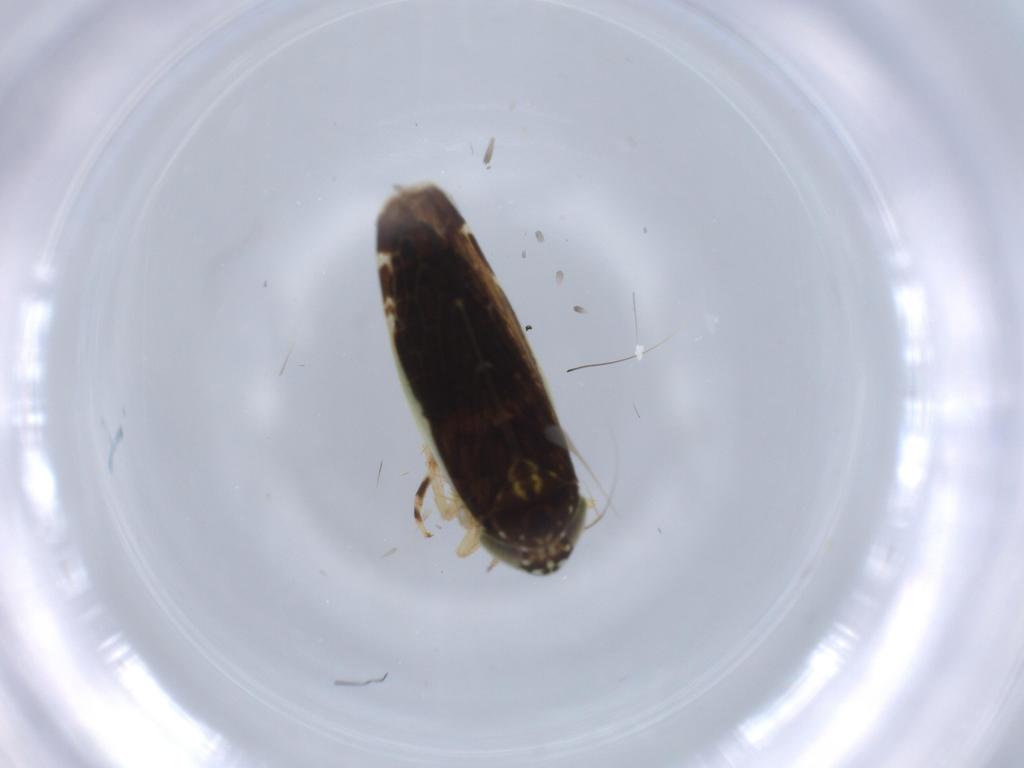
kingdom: Animalia
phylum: Arthropoda
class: Insecta
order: Hemiptera
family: Cicadellidae
